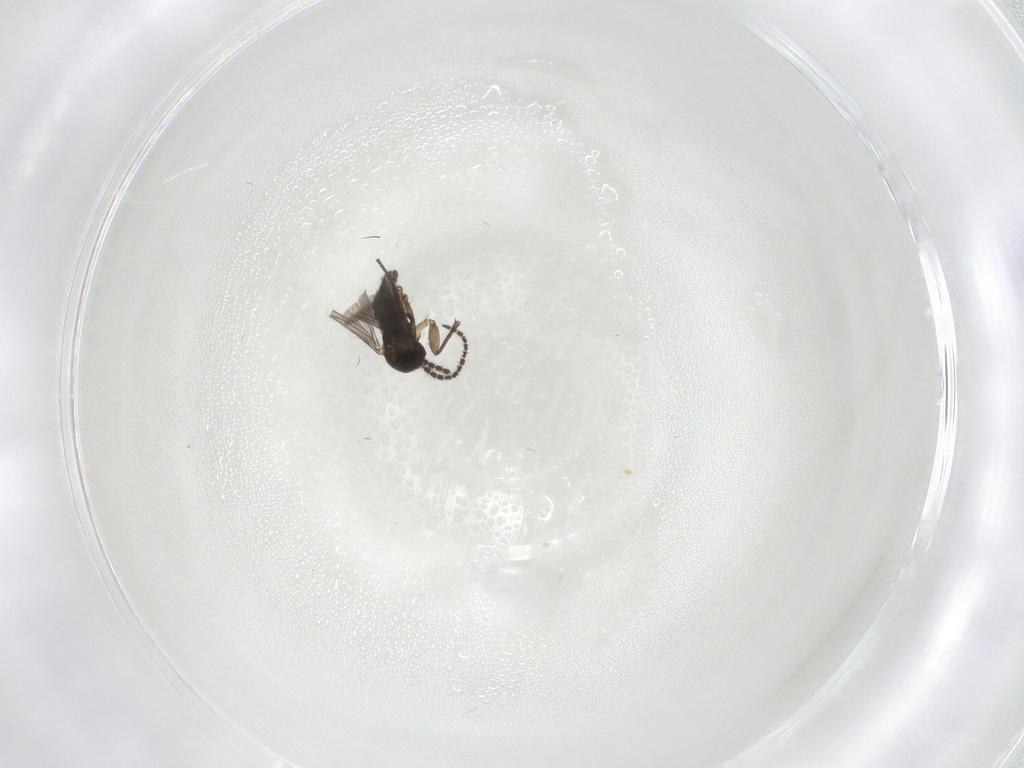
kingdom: Animalia
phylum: Arthropoda
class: Insecta
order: Diptera
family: Sciaridae
